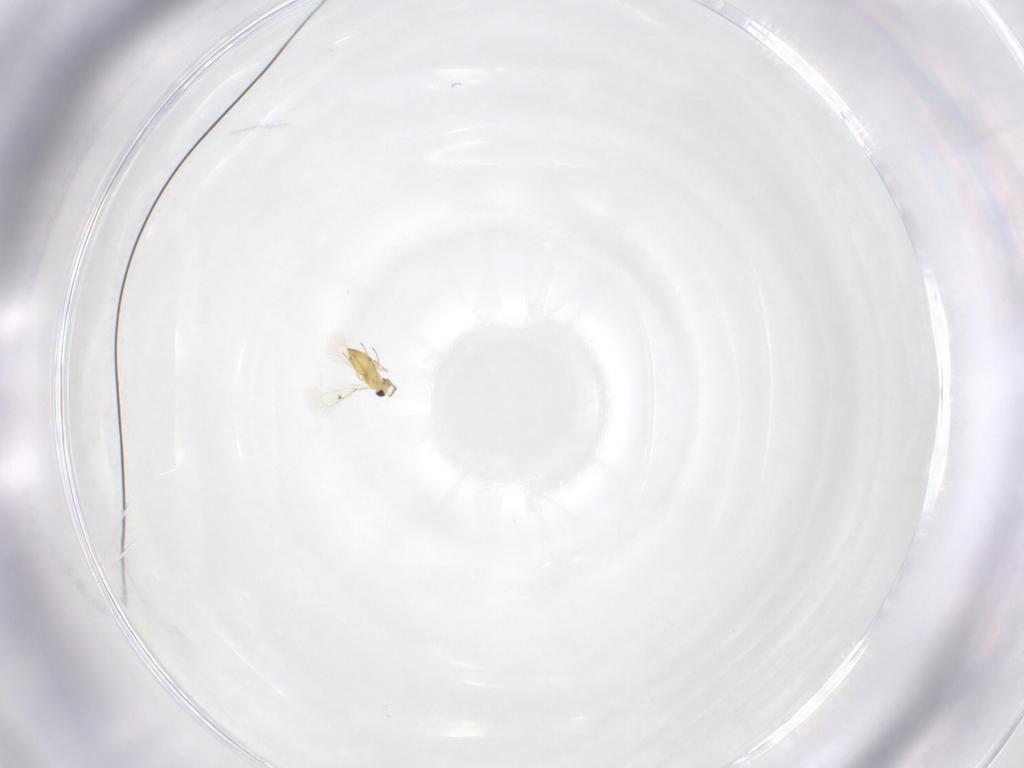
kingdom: Animalia
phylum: Arthropoda
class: Insecta
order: Hymenoptera
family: Trichogrammatidae
